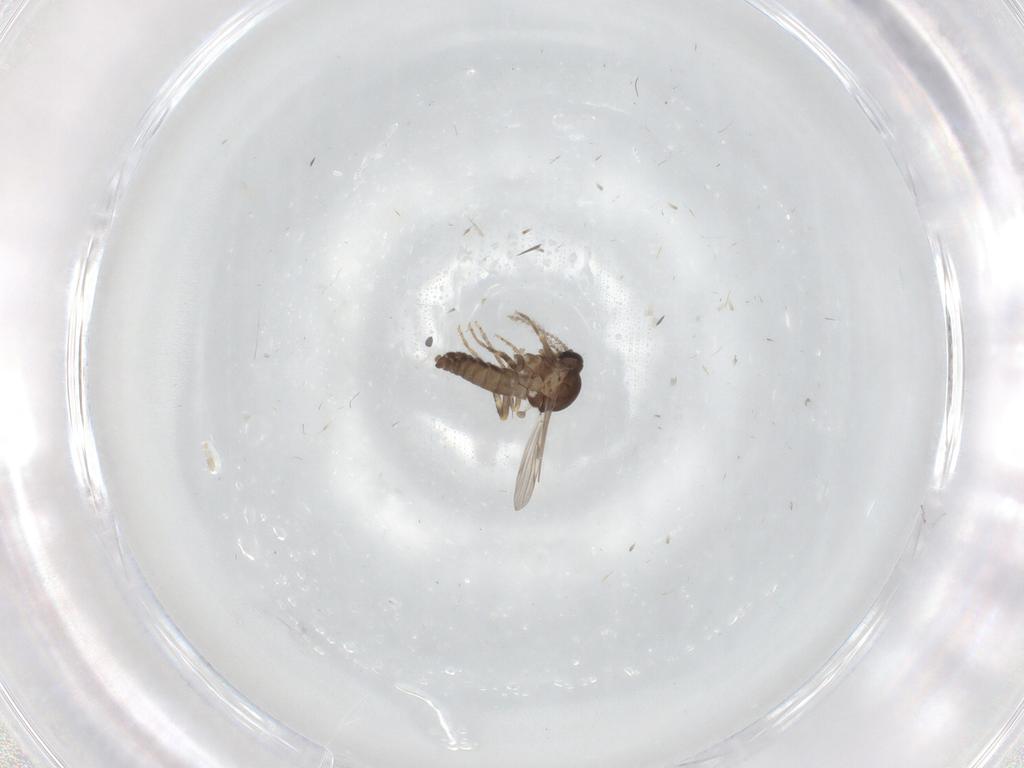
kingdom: Animalia
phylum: Arthropoda
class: Insecta
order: Diptera
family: Ceratopogonidae
